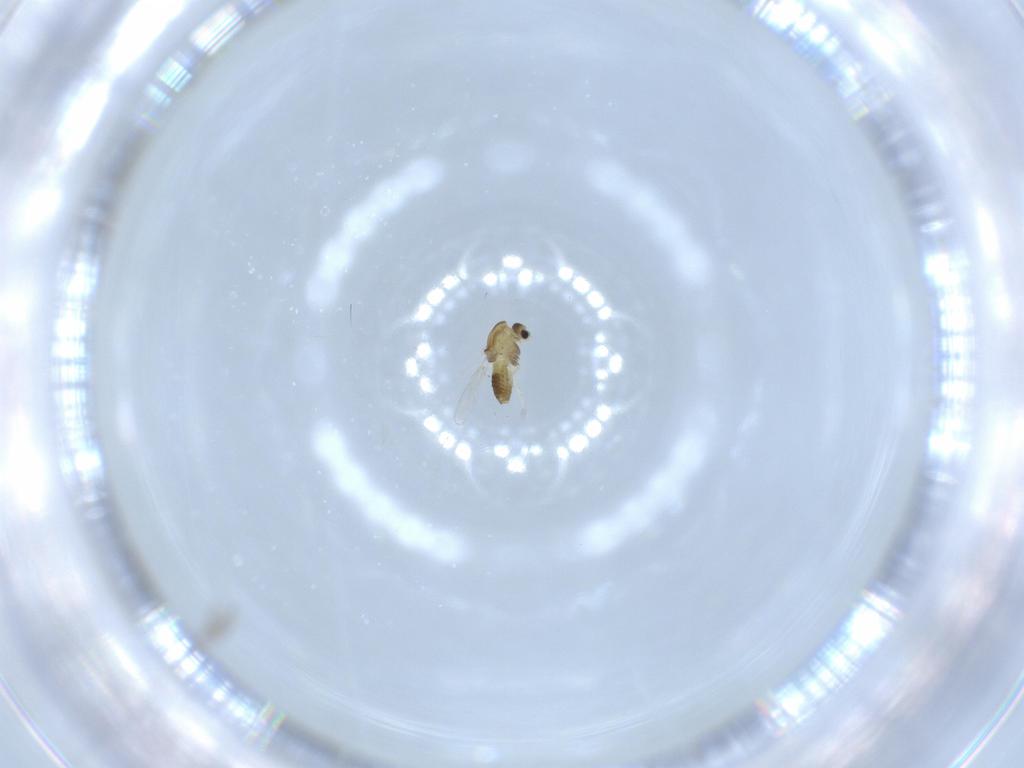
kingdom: Animalia
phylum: Arthropoda
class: Insecta
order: Diptera
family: Chironomidae
